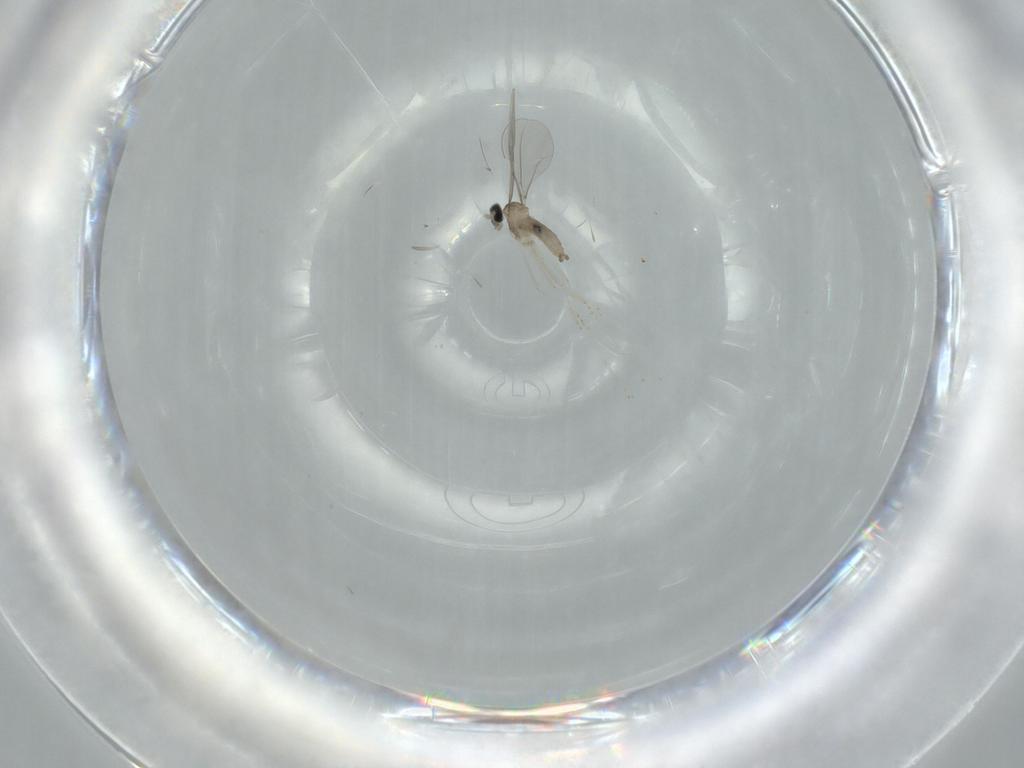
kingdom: Animalia
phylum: Arthropoda
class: Insecta
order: Diptera
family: Cecidomyiidae
